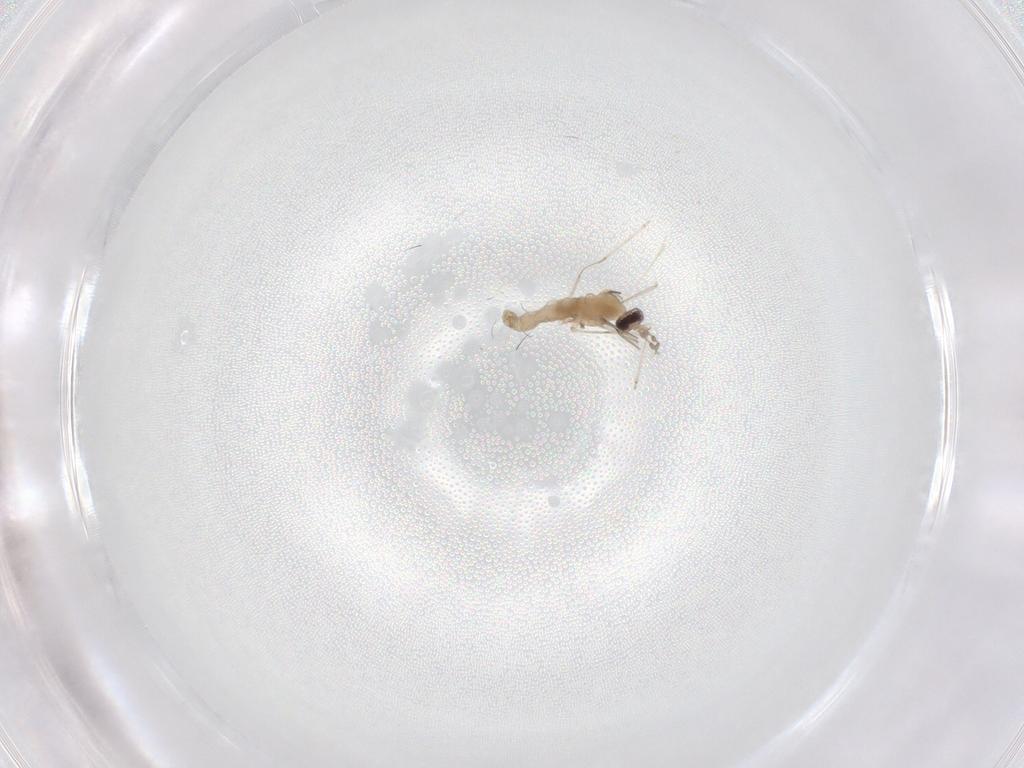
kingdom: Animalia
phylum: Arthropoda
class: Insecta
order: Diptera
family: Cecidomyiidae
